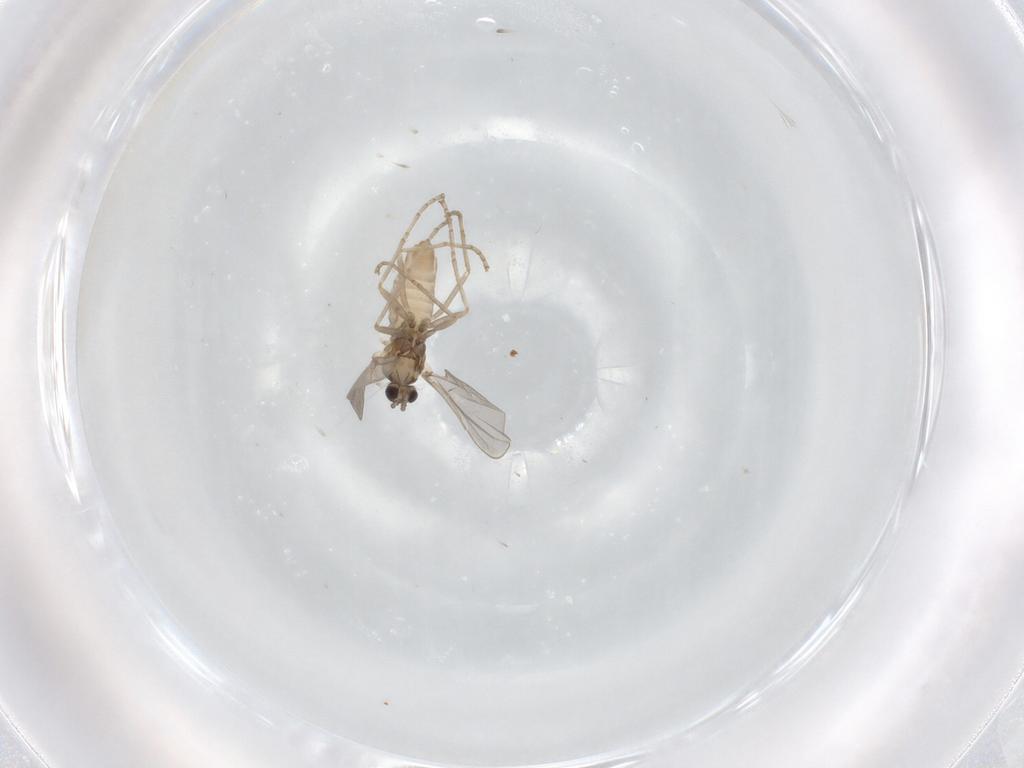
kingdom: Animalia
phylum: Arthropoda
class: Insecta
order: Diptera
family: Cecidomyiidae
